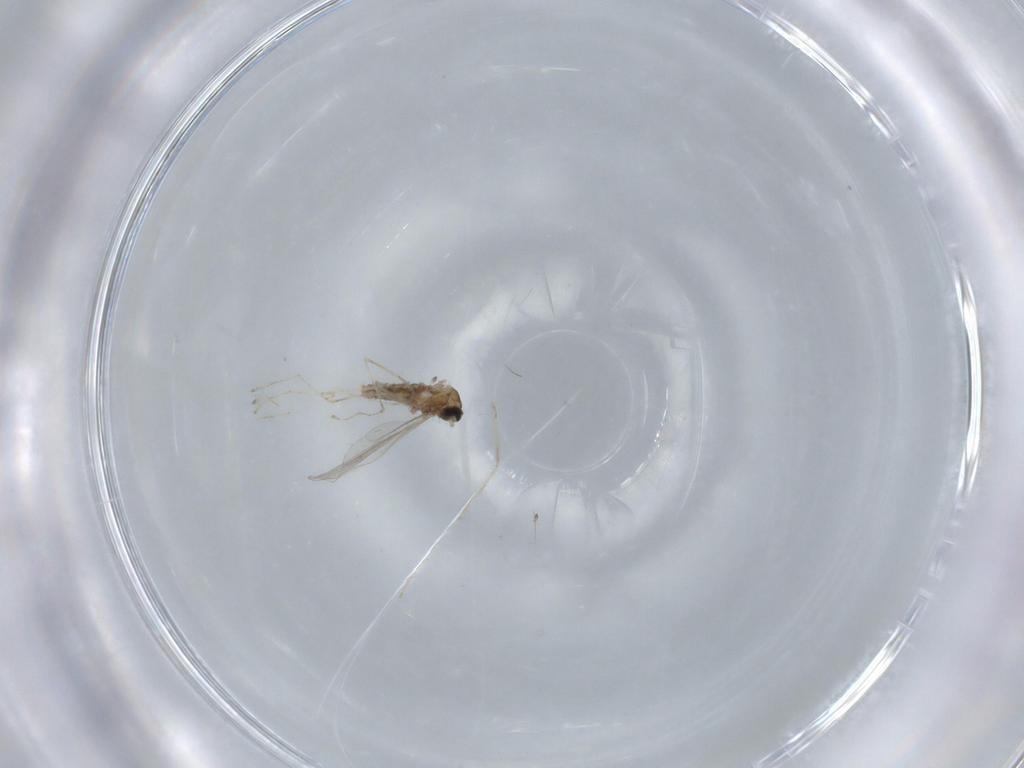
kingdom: Animalia
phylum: Arthropoda
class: Insecta
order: Diptera
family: Cecidomyiidae
